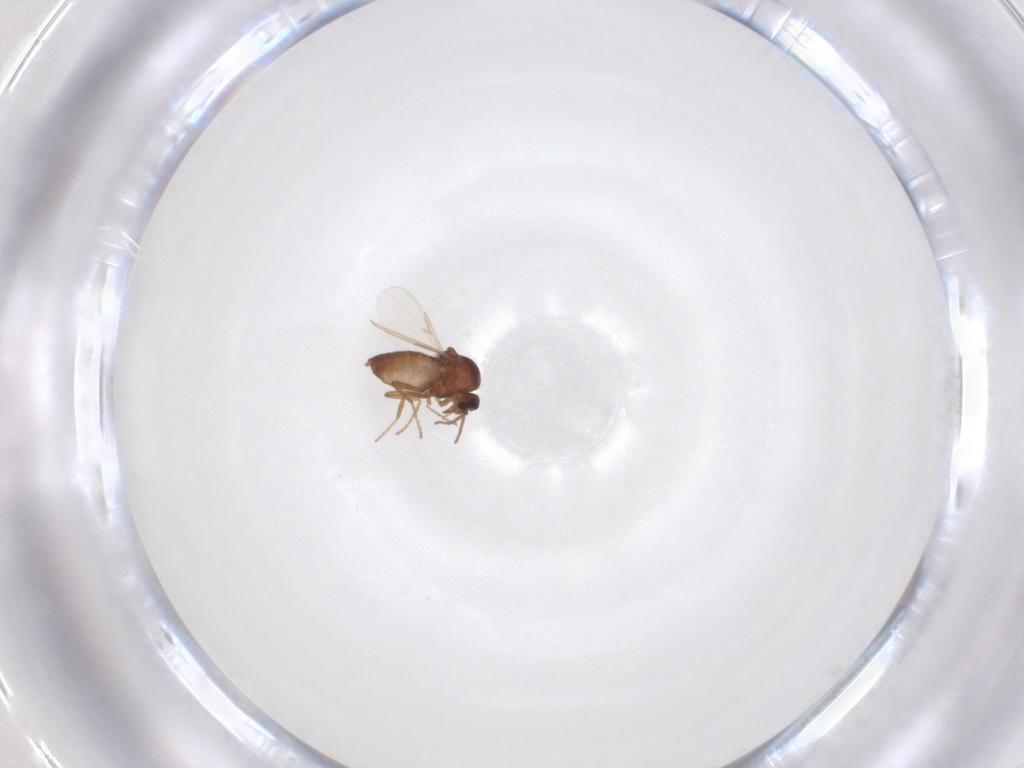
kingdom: Animalia
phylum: Arthropoda
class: Insecta
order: Diptera
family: Ceratopogonidae
